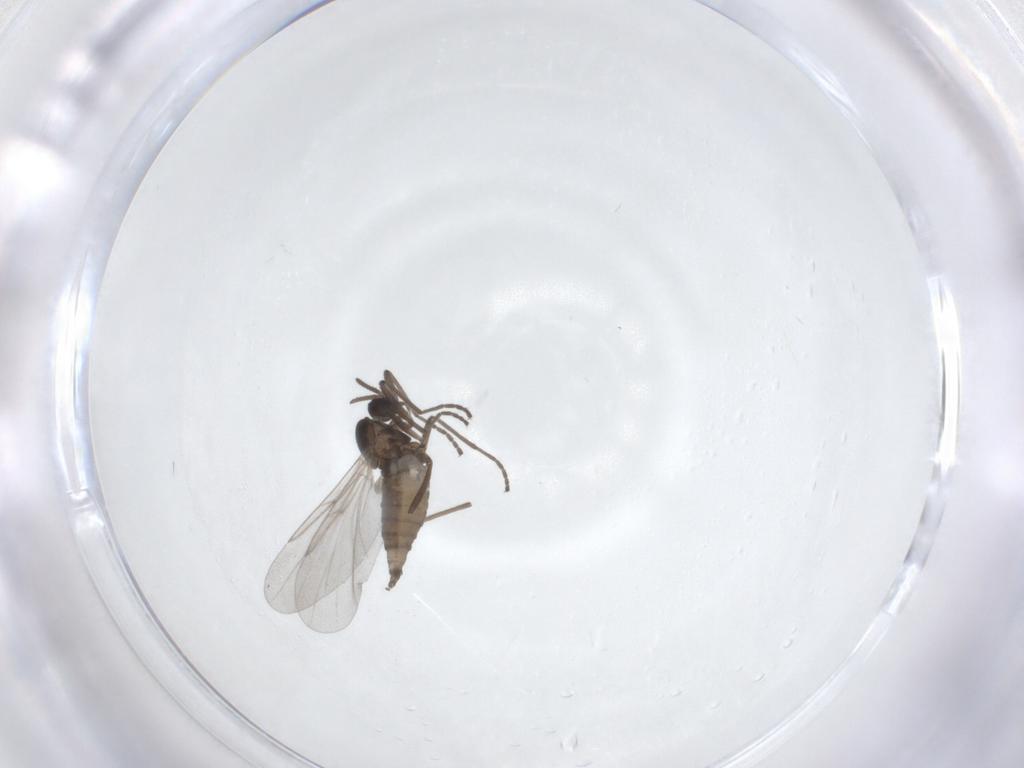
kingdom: Animalia
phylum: Arthropoda
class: Insecta
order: Diptera
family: Cecidomyiidae
